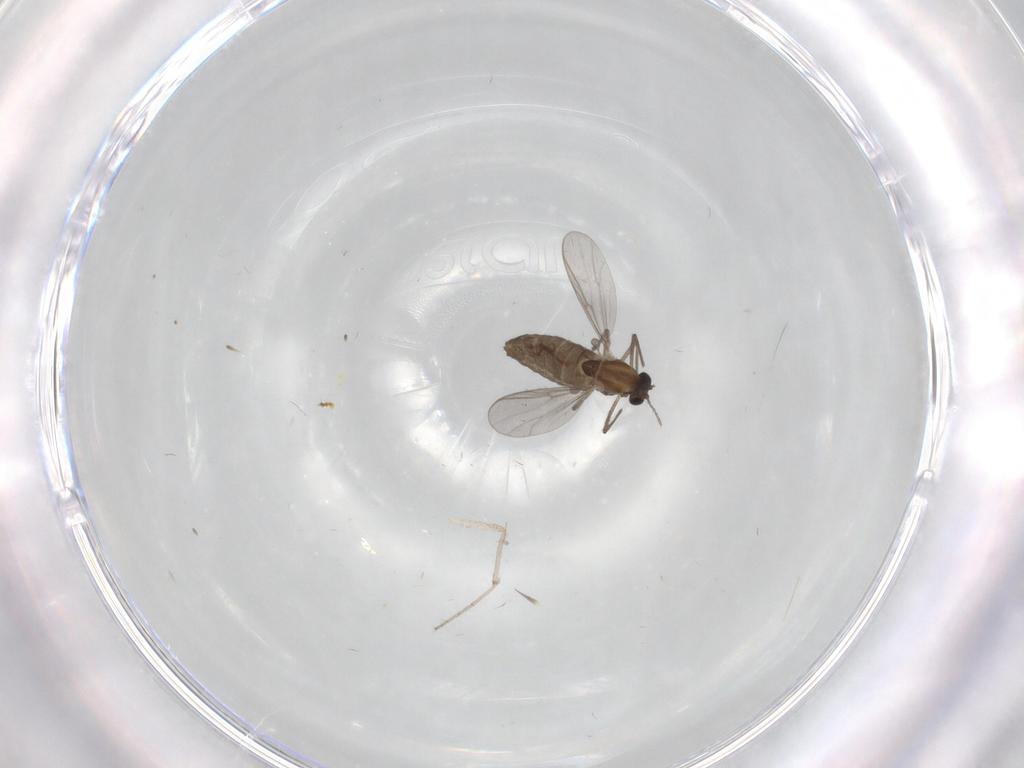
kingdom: Animalia
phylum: Arthropoda
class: Insecta
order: Diptera
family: Chironomidae
